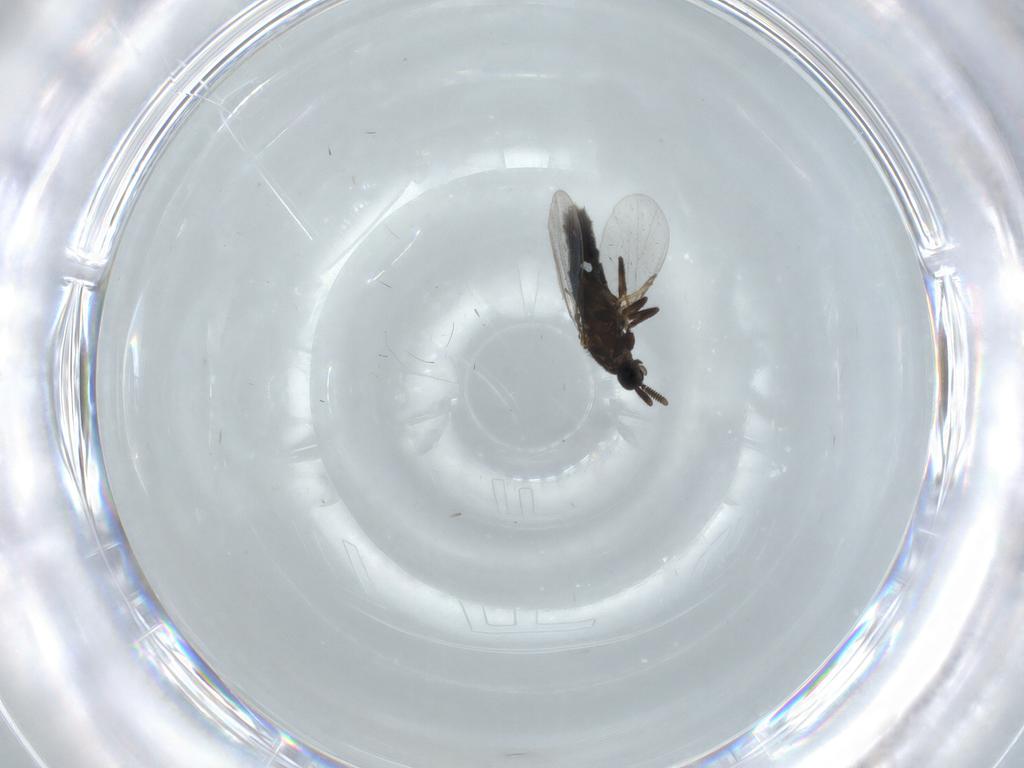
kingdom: Animalia
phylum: Arthropoda
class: Insecta
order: Diptera
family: Scatopsidae
